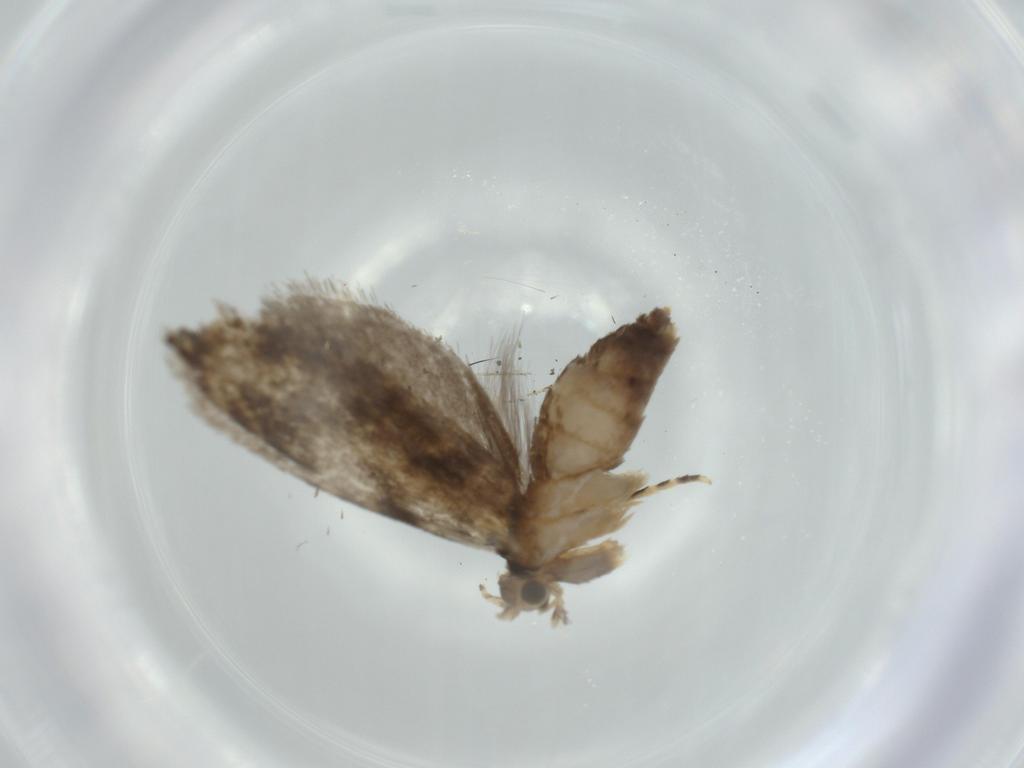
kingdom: Animalia
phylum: Arthropoda
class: Insecta
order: Lepidoptera
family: Tineidae
